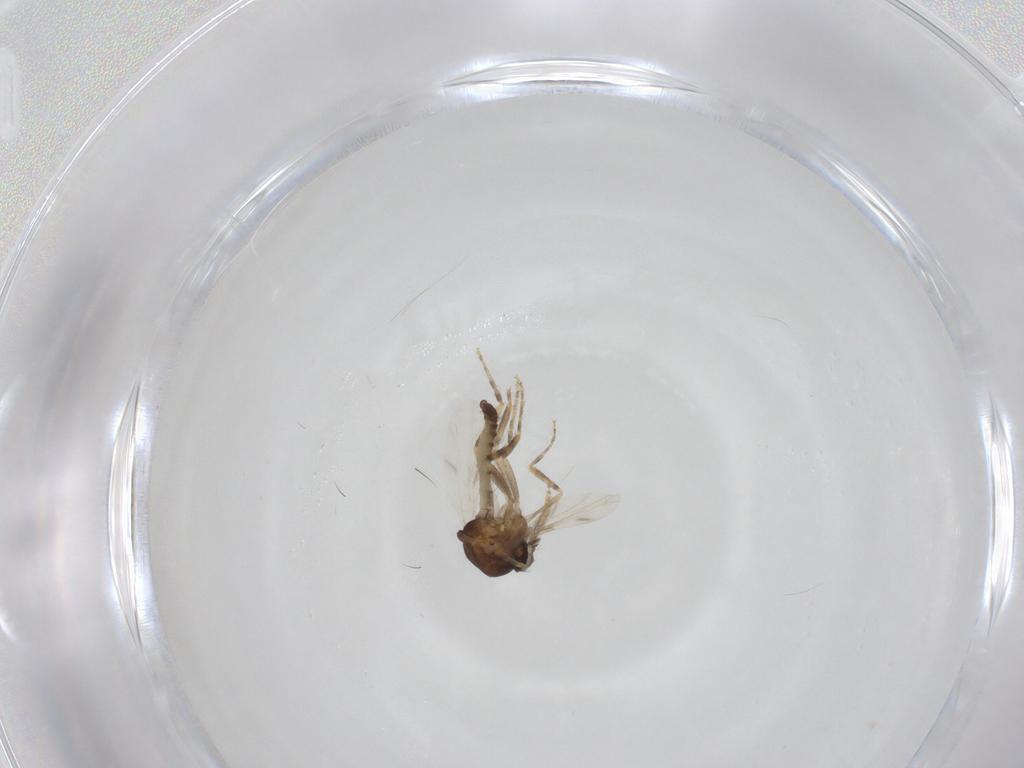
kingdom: Animalia
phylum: Arthropoda
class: Insecta
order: Diptera
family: Ceratopogonidae
